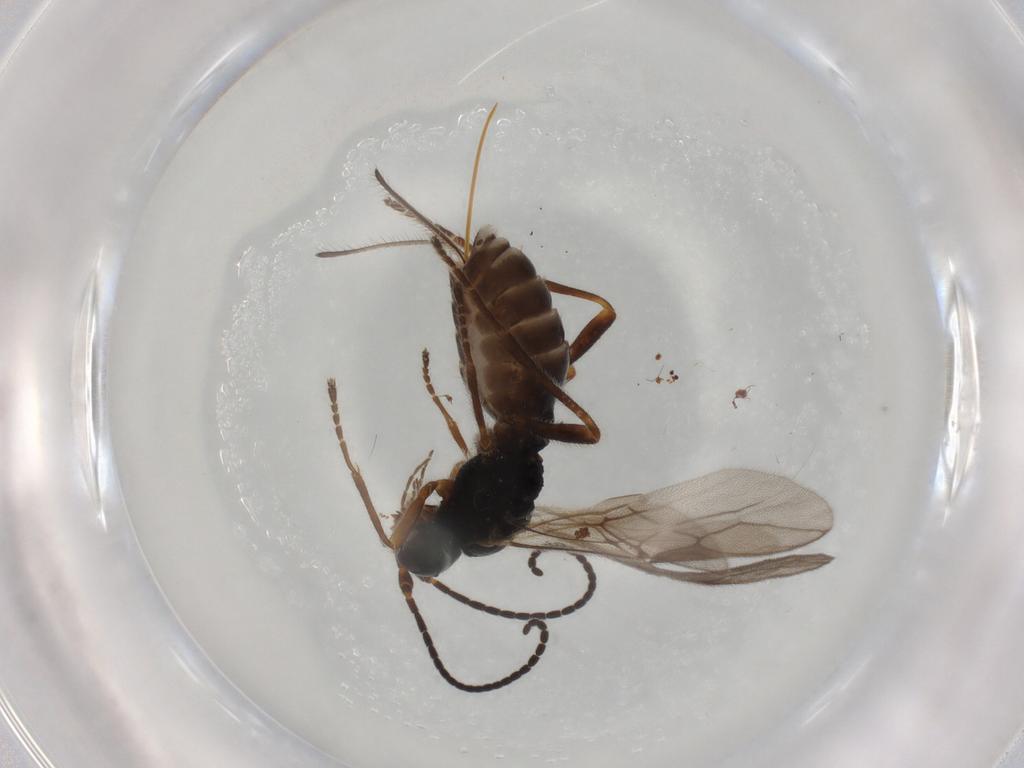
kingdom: Animalia
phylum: Arthropoda
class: Insecta
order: Hymenoptera
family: Braconidae
